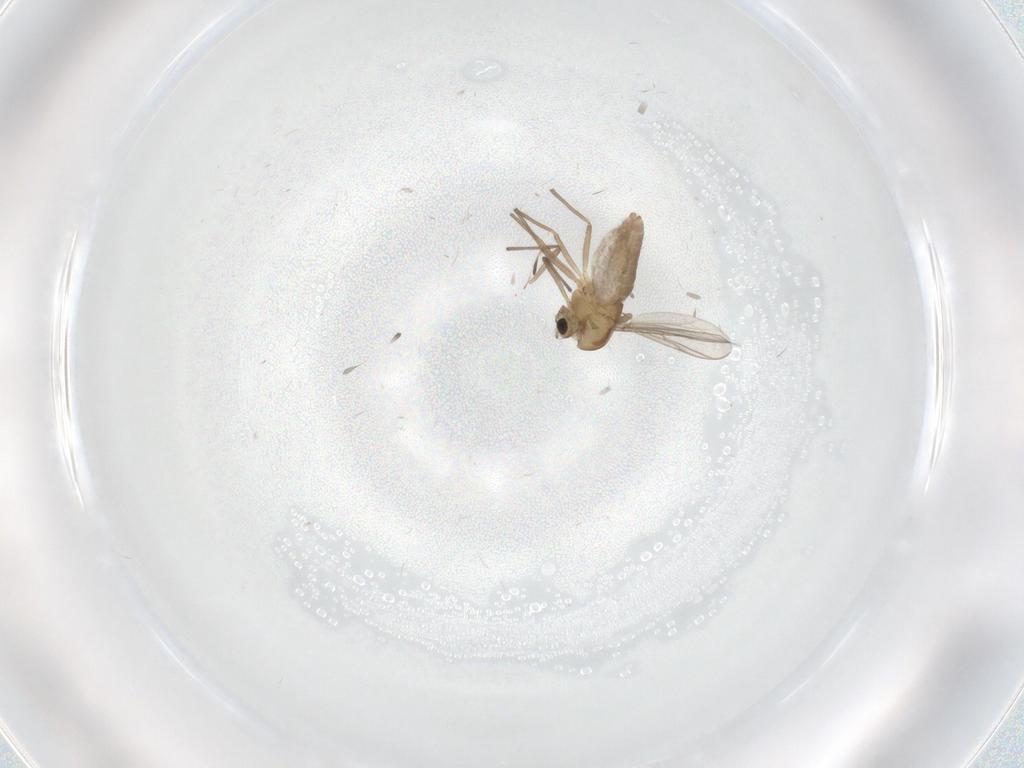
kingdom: Animalia
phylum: Arthropoda
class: Insecta
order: Diptera
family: Chironomidae
